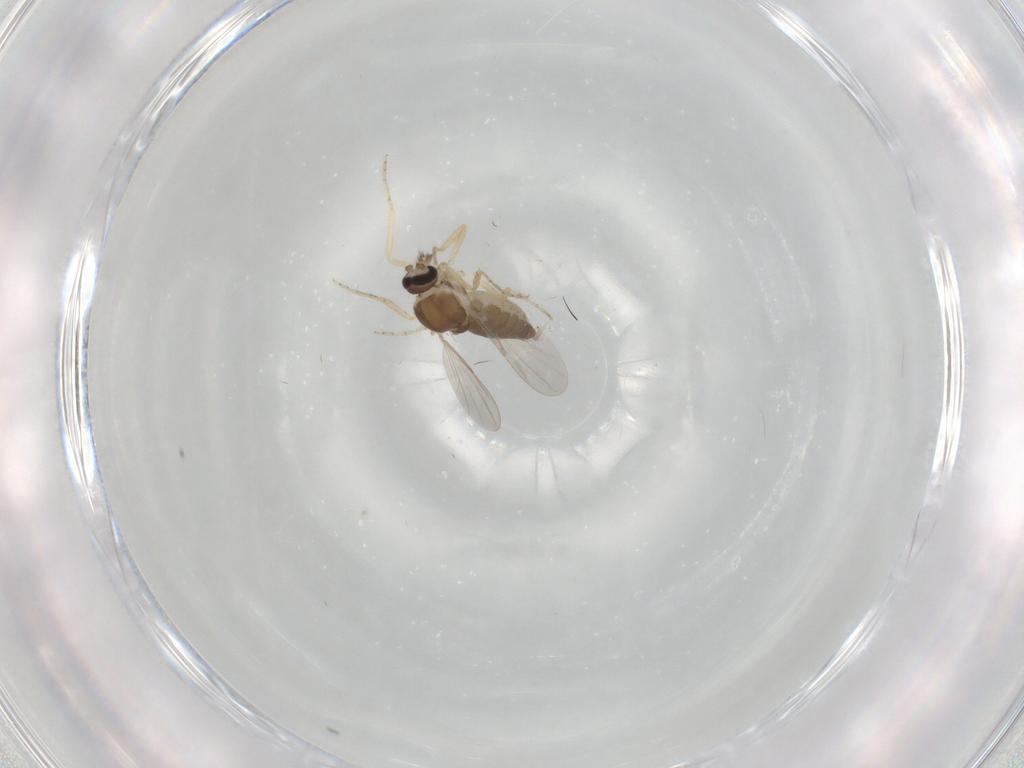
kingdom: Animalia
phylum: Arthropoda
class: Insecta
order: Diptera
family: Ceratopogonidae
